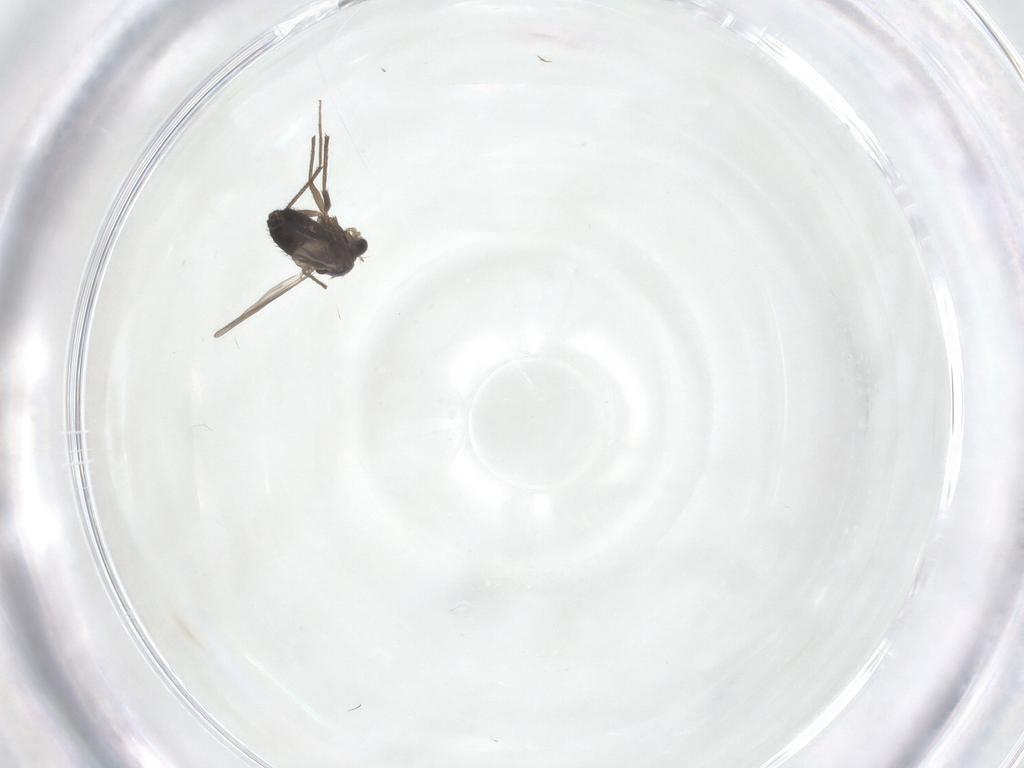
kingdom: Animalia
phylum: Arthropoda
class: Insecta
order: Diptera
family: Chironomidae
